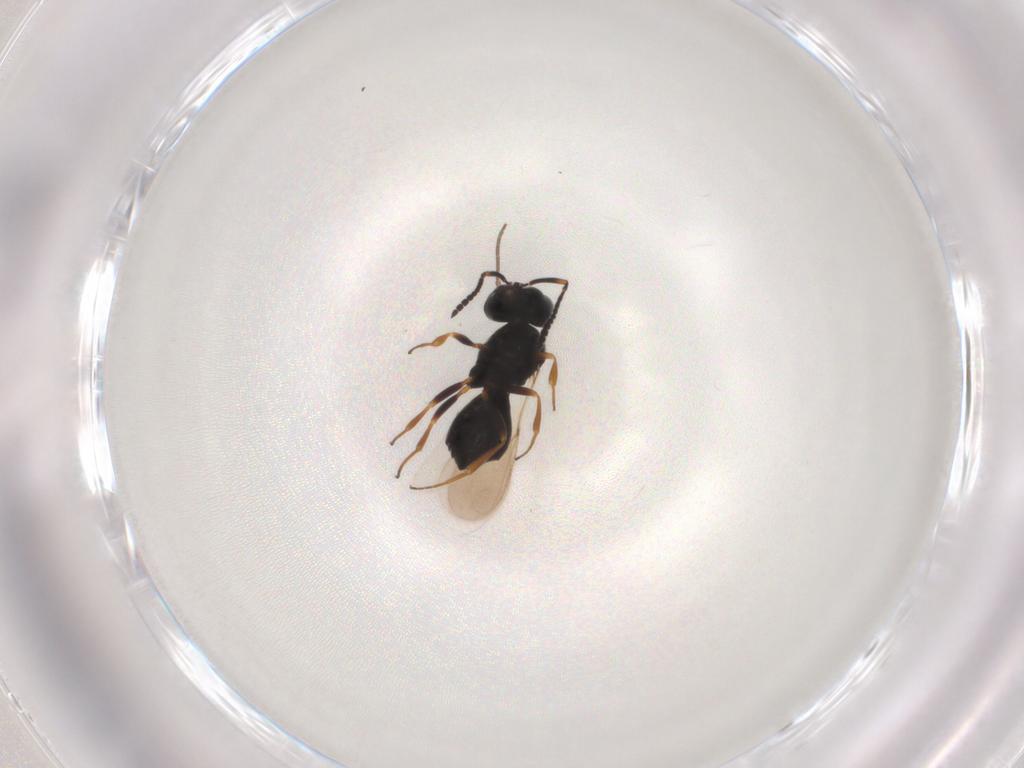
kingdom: Animalia
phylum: Arthropoda
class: Insecta
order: Hymenoptera
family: Scelionidae
